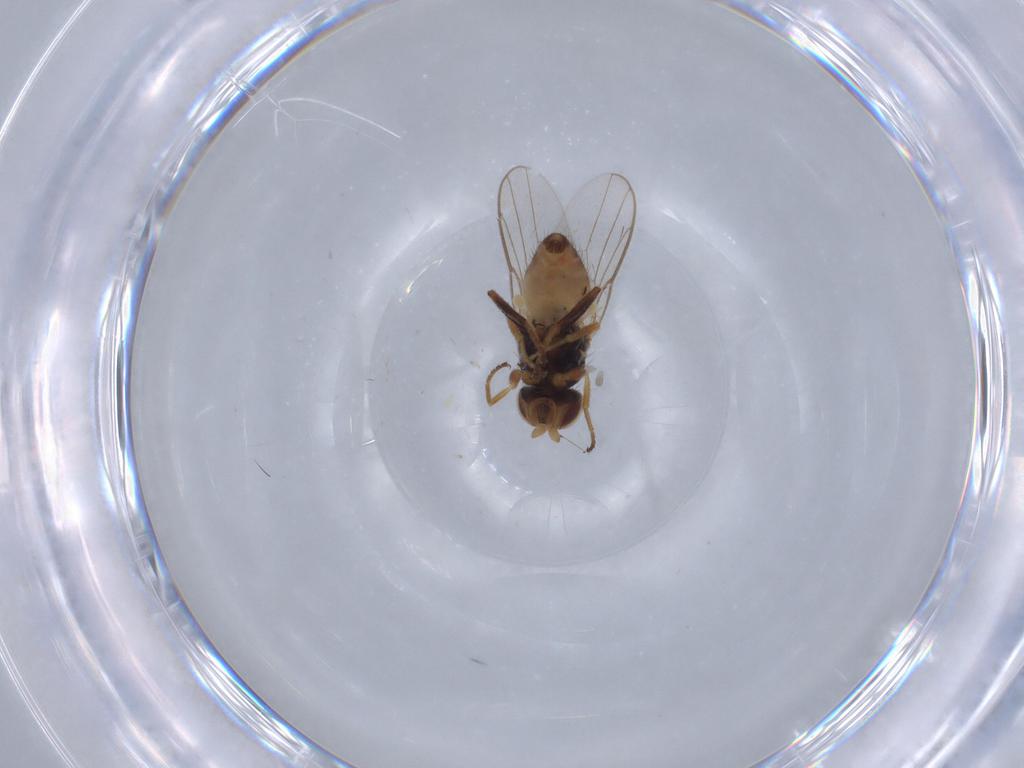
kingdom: Animalia
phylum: Arthropoda
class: Insecta
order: Diptera
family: Chloropidae
